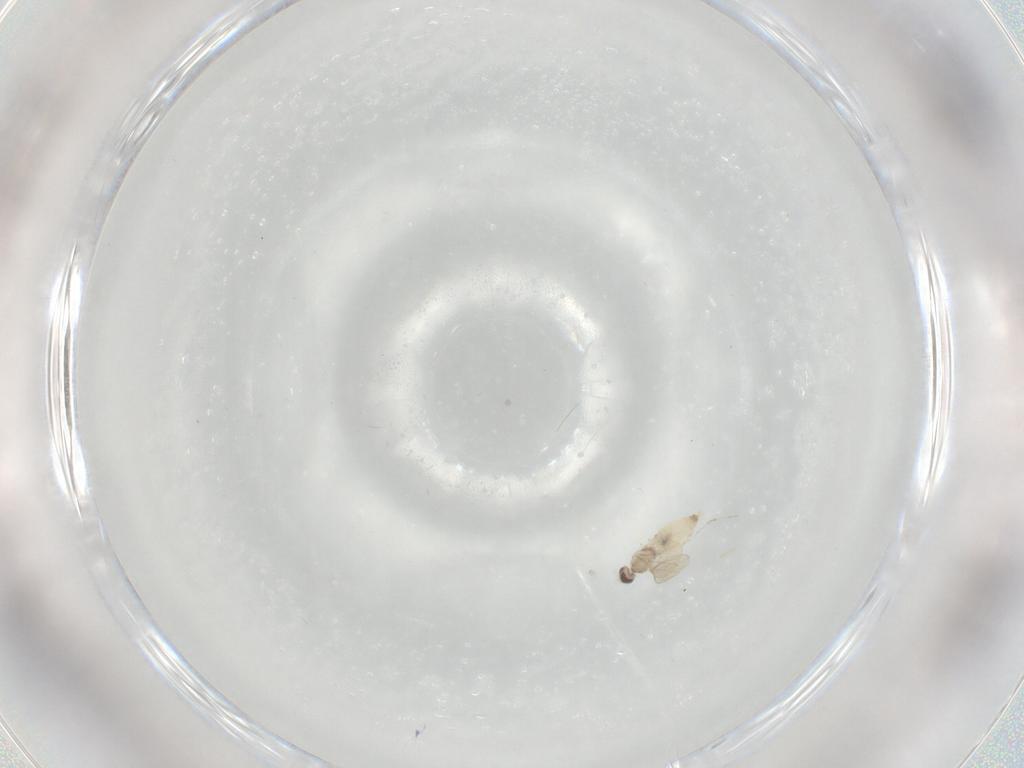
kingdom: Animalia
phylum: Arthropoda
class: Insecta
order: Diptera
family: Cecidomyiidae
